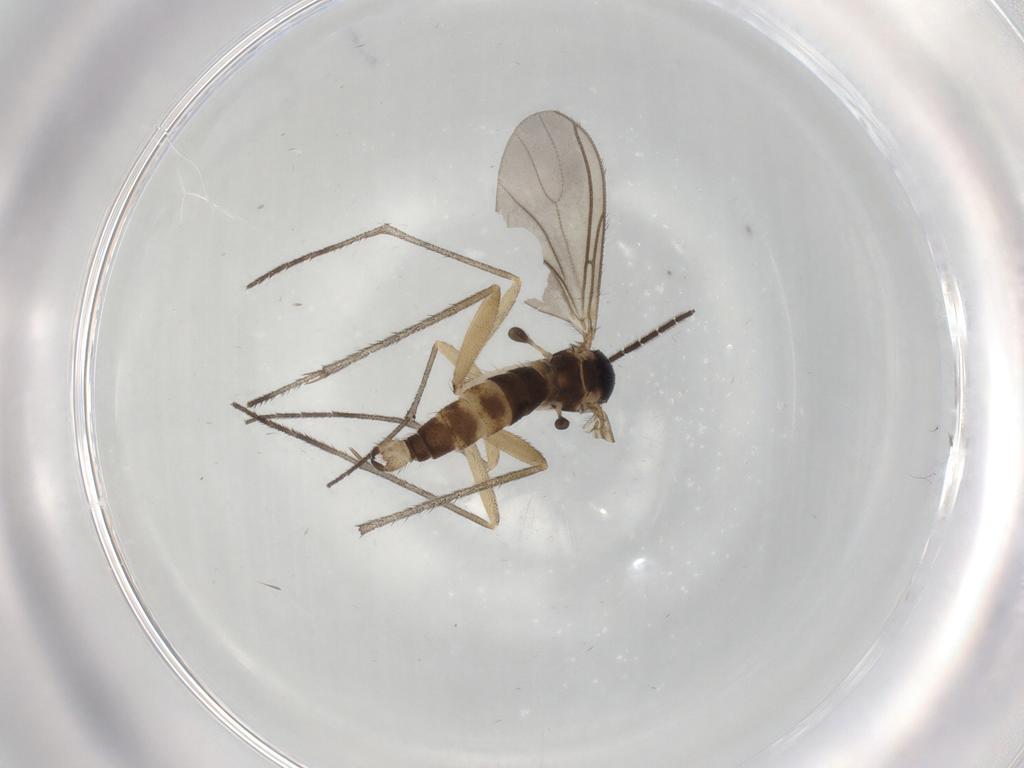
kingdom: Animalia
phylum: Arthropoda
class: Insecta
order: Diptera
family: Sciaridae
